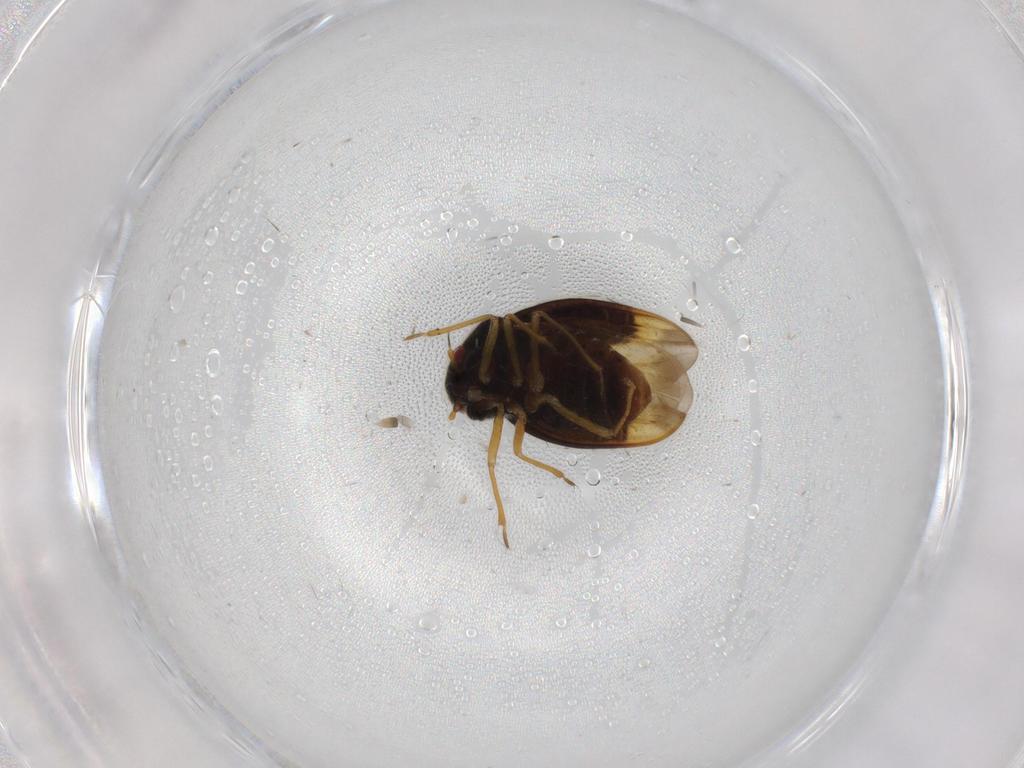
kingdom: Animalia
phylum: Arthropoda
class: Insecta
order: Hemiptera
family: Schizopteridae
